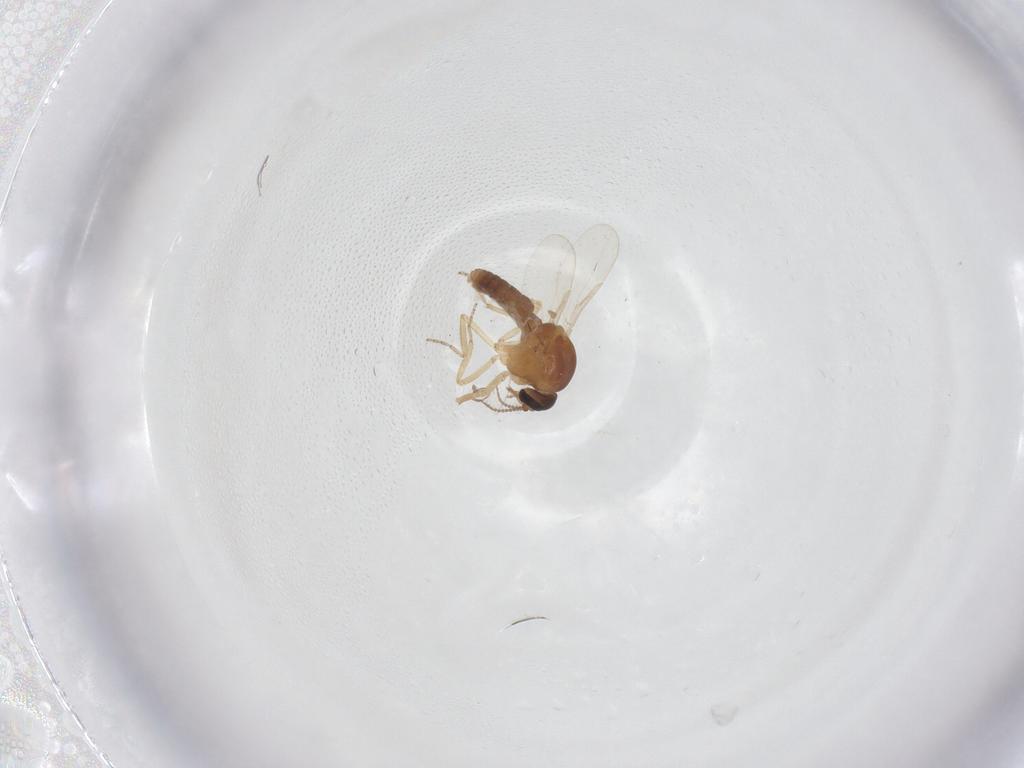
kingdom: Animalia
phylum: Arthropoda
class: Insecta
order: Diptera
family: Ceratopogonidae
